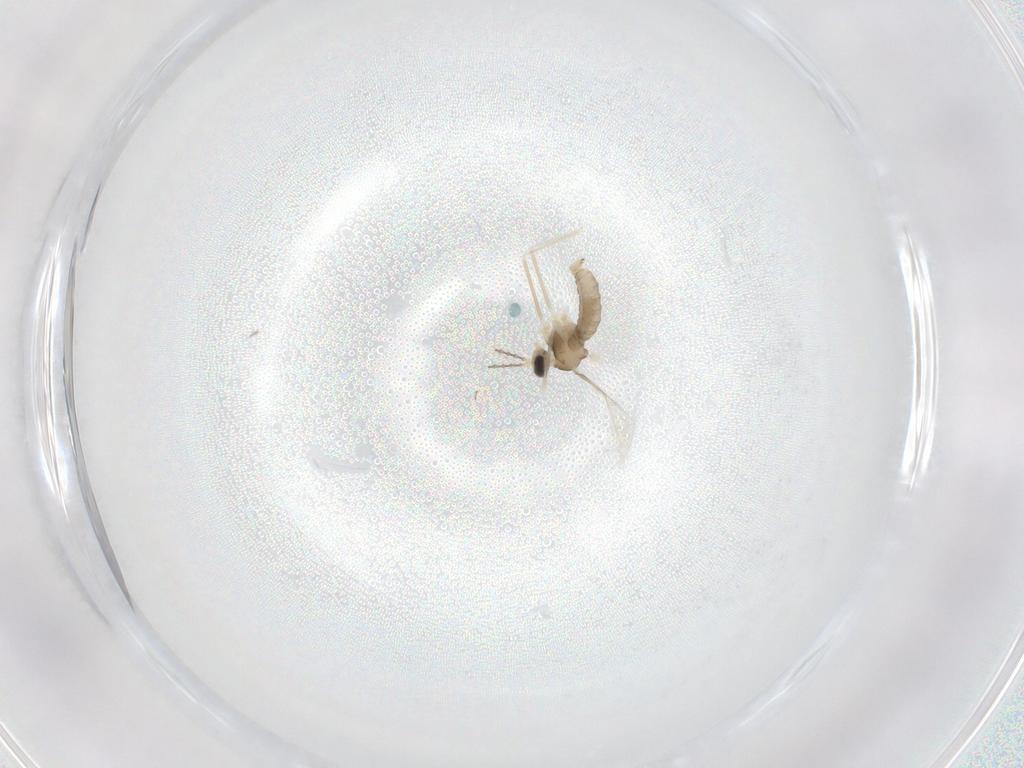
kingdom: Animalia
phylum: Arthropoda
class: Insecta
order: Diptera
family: Cecidomyiidae
